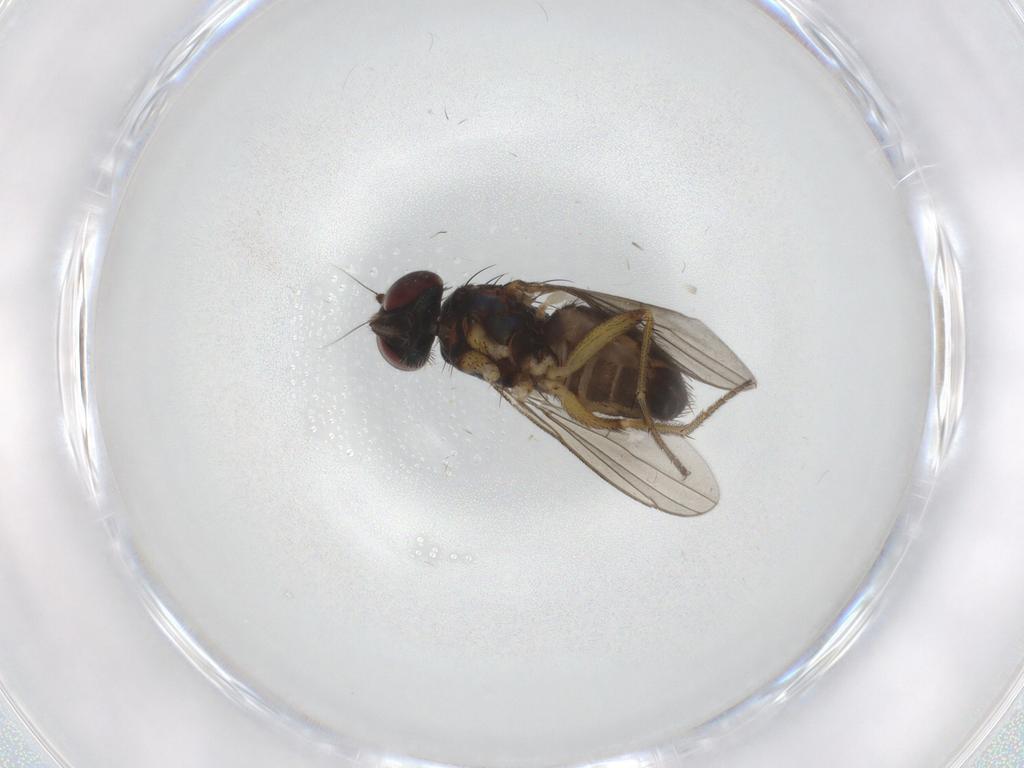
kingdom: Animalia
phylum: Arthropoda
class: Insecta
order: Diptera
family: Dolichopodidae
